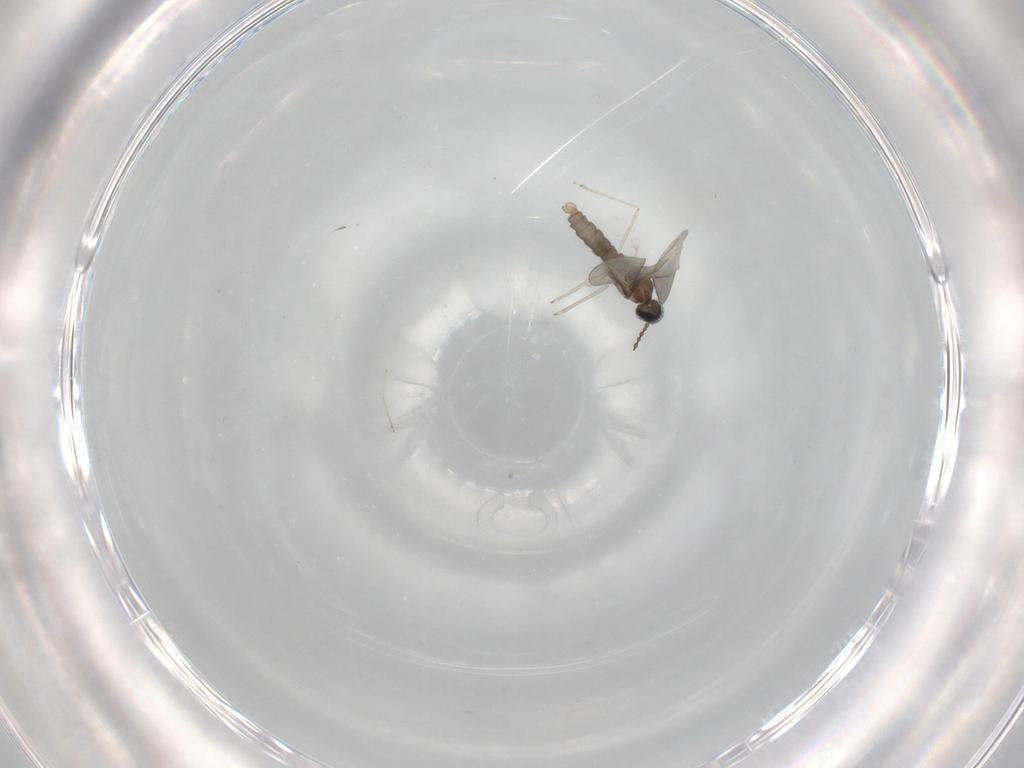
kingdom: Animalia
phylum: Arthropoda
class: Insecta
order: Diptera
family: Cecidomyiidae
